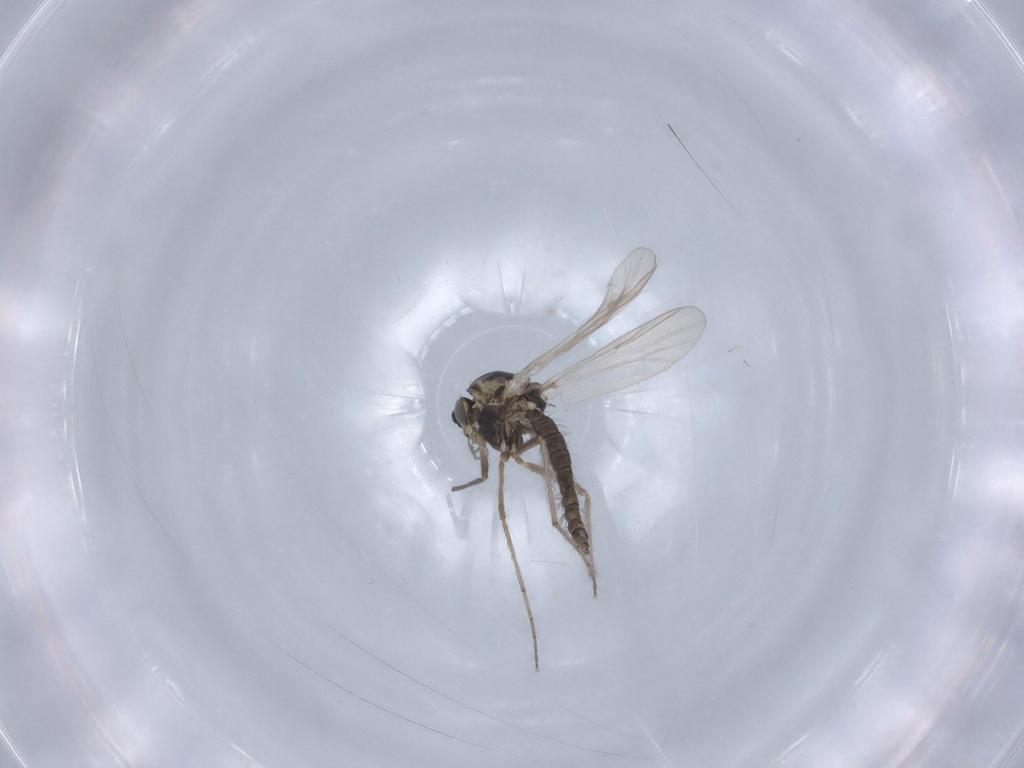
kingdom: Animalia
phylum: Arthropoda
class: Insecta
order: Diptera
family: Chironomidae
